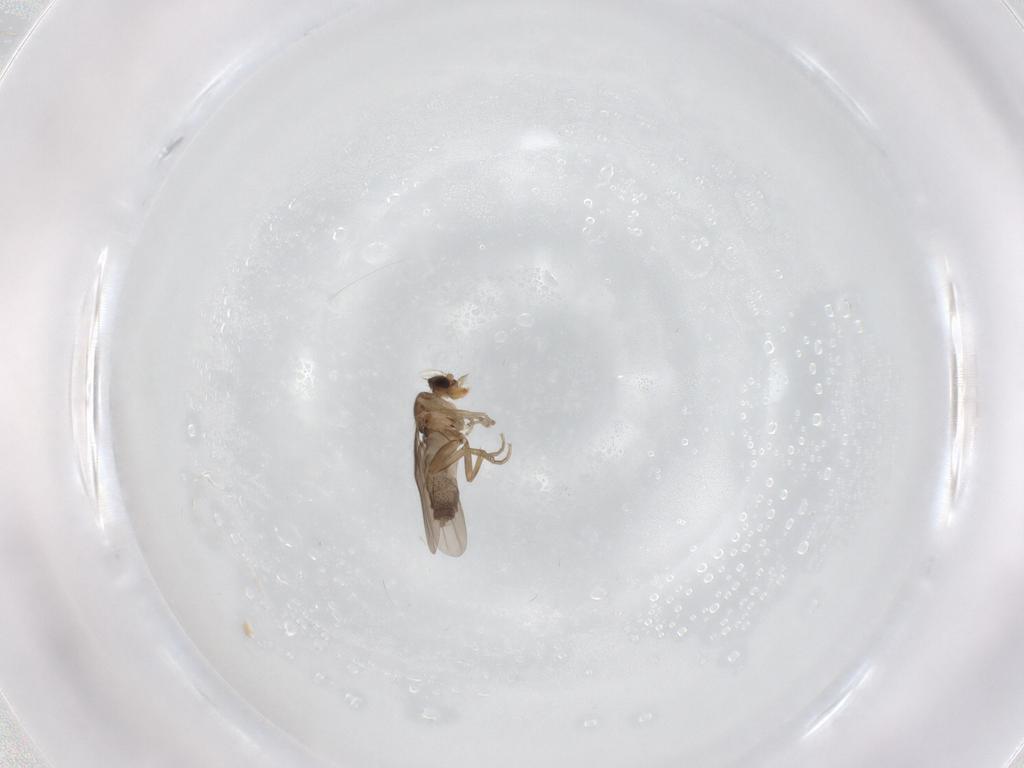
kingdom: Animalia
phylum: Arthropoda
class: Insecta
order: Diptera
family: Phoridae
